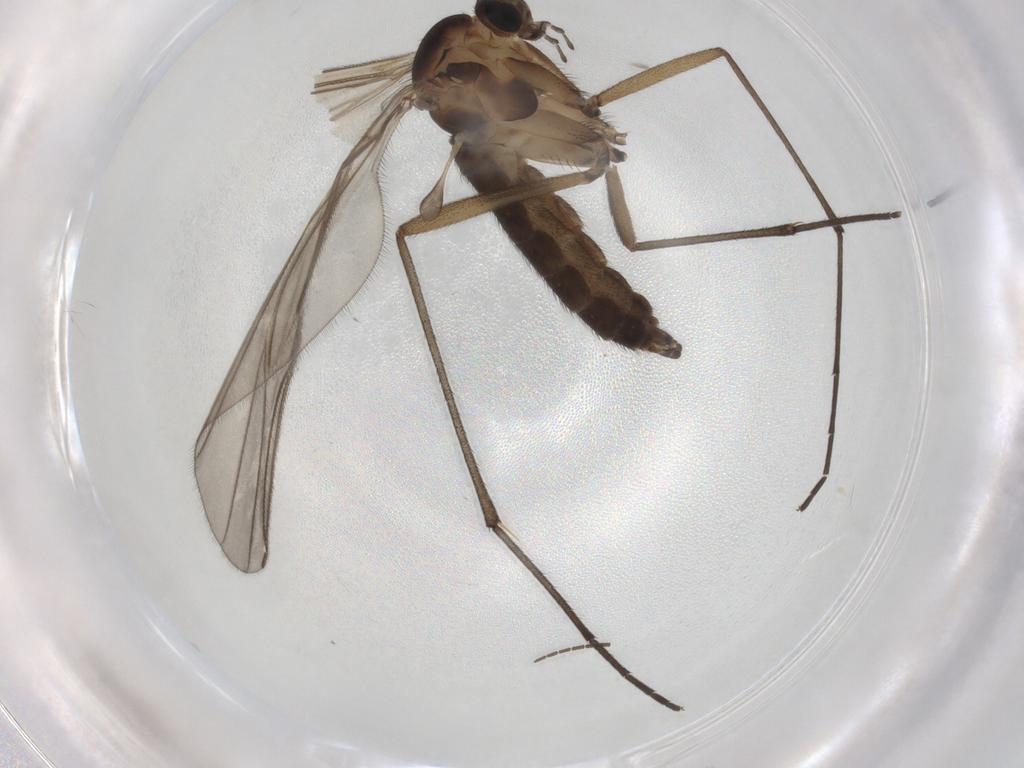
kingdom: Animalia
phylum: Arthropoda
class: Insecta
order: Diptera
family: Sciaridae
